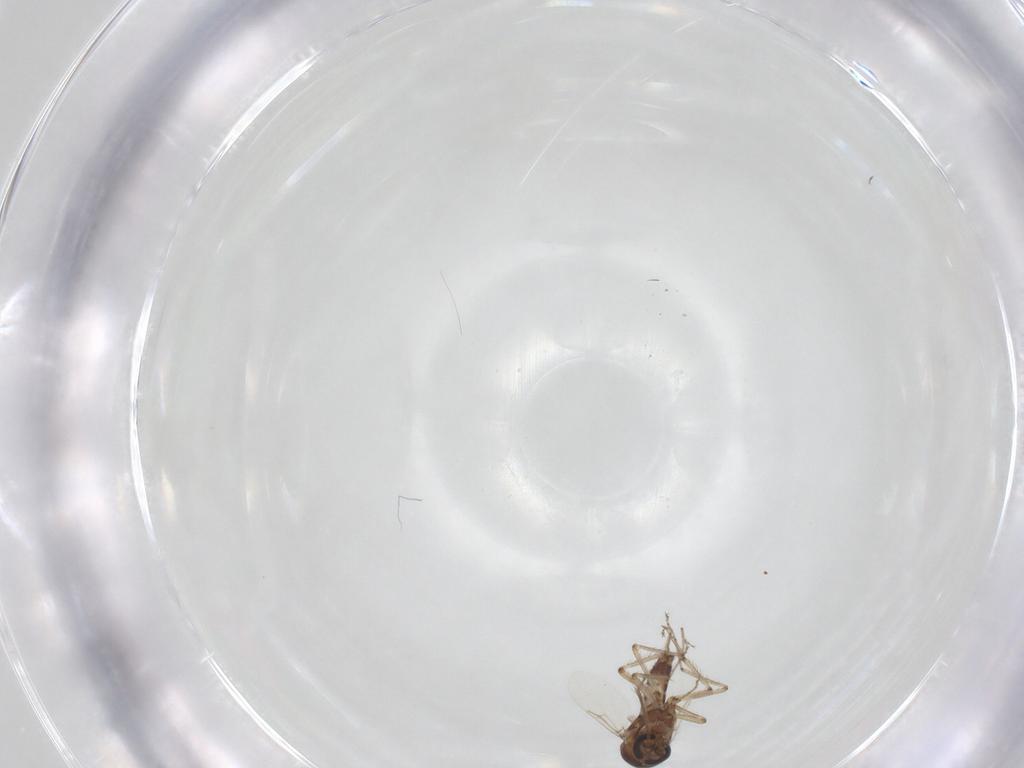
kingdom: Animalia
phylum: Arthropoda
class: Insecta
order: Diptera
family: Ceratopogonidae
